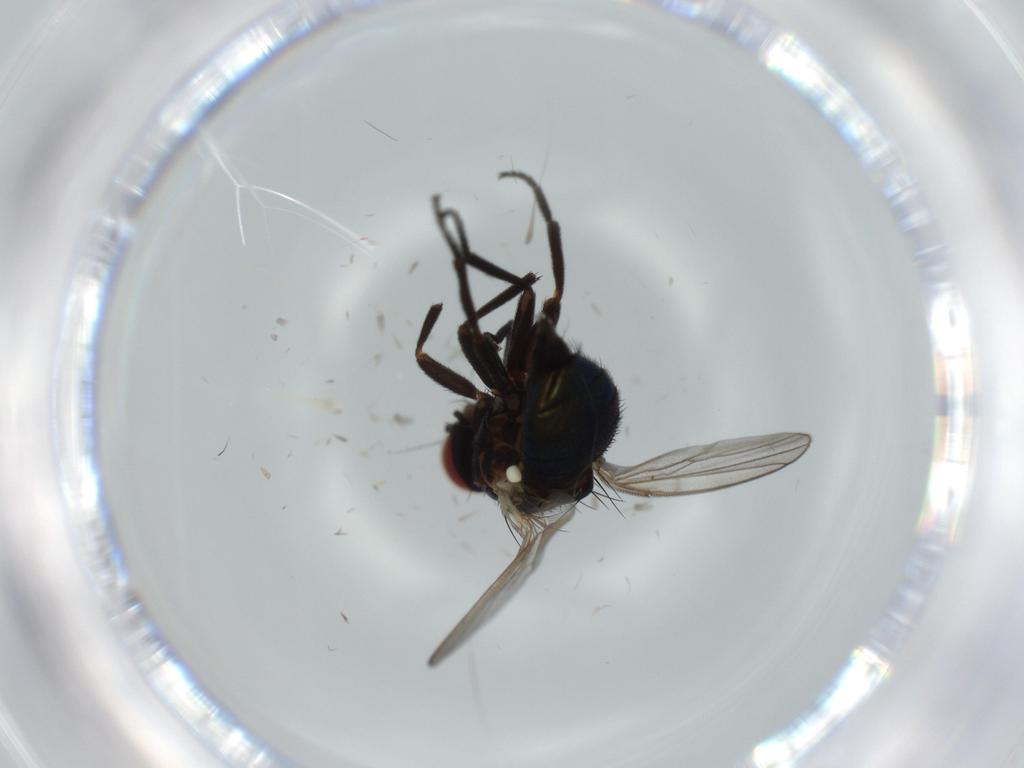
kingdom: Animalia
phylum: Arthropoda
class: Insecta
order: Diptera
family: Agromyzidae
